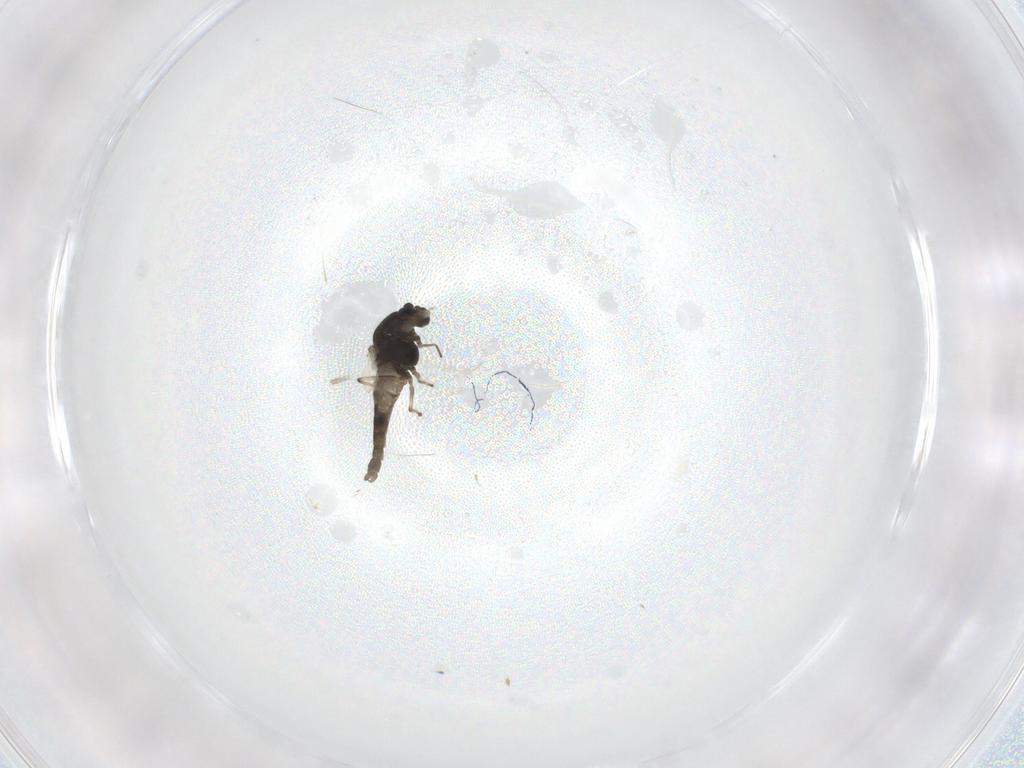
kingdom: Animalia
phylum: Arthropoda
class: Insecta
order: Diptera
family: Chironomidae
